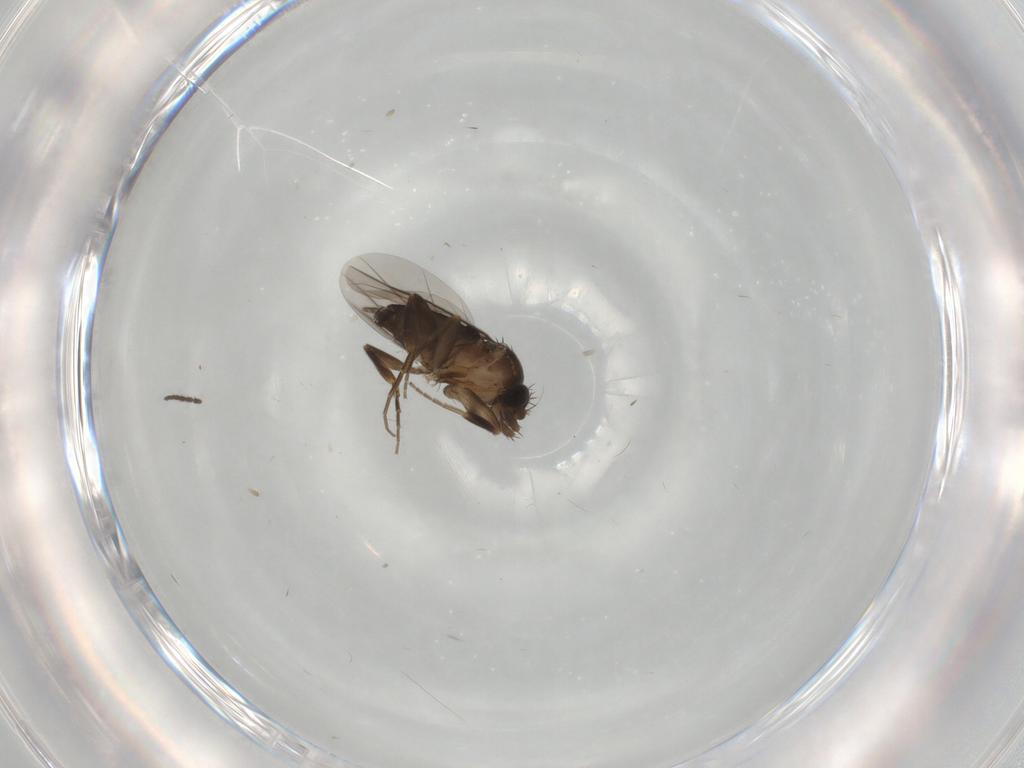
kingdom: Animalia
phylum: Arthropoda
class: Insecta
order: Diptera
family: Phoridae
